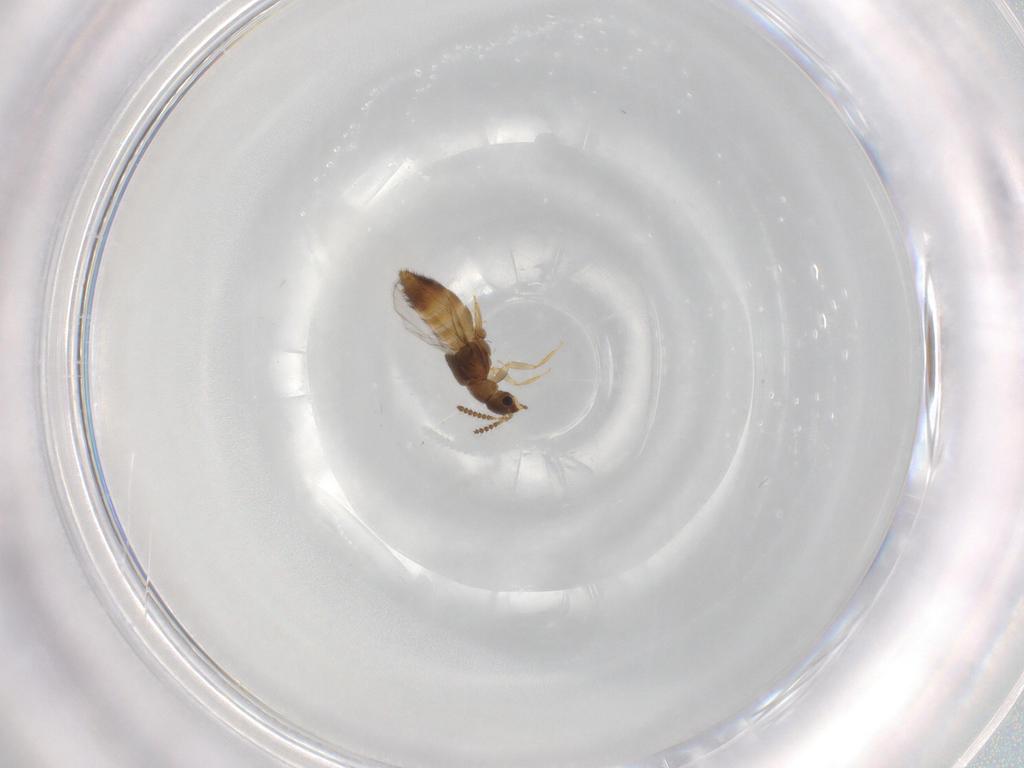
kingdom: Animalia
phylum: Arthropoda
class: Insecta
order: Coleoptera
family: Staphylinidae
